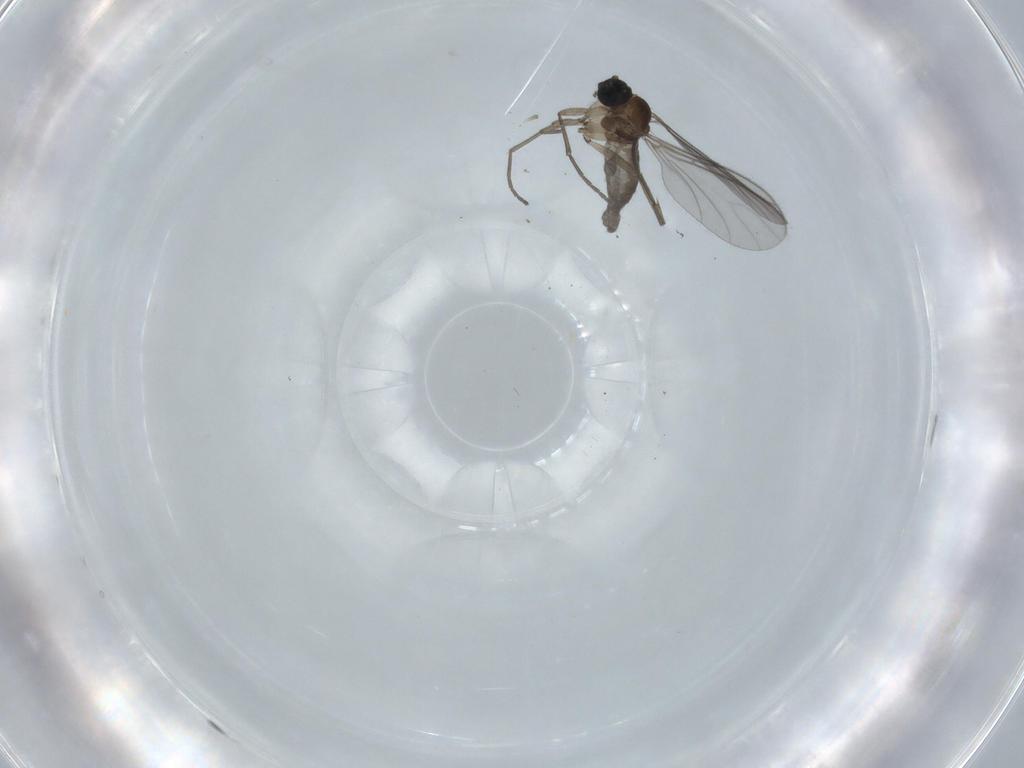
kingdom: Animalia
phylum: Arthropoda
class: Insecta
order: Diptera
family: Sciaridae
